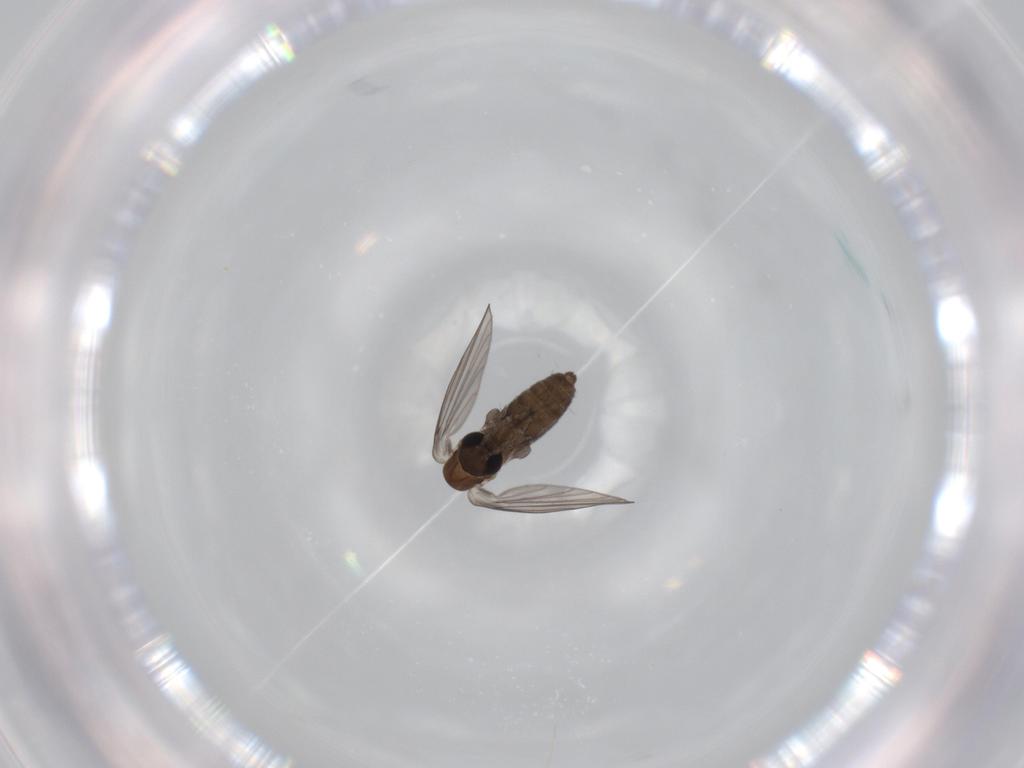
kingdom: Animalia
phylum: Arthropoda
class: Insecta
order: Diptera
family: Psychodidae
